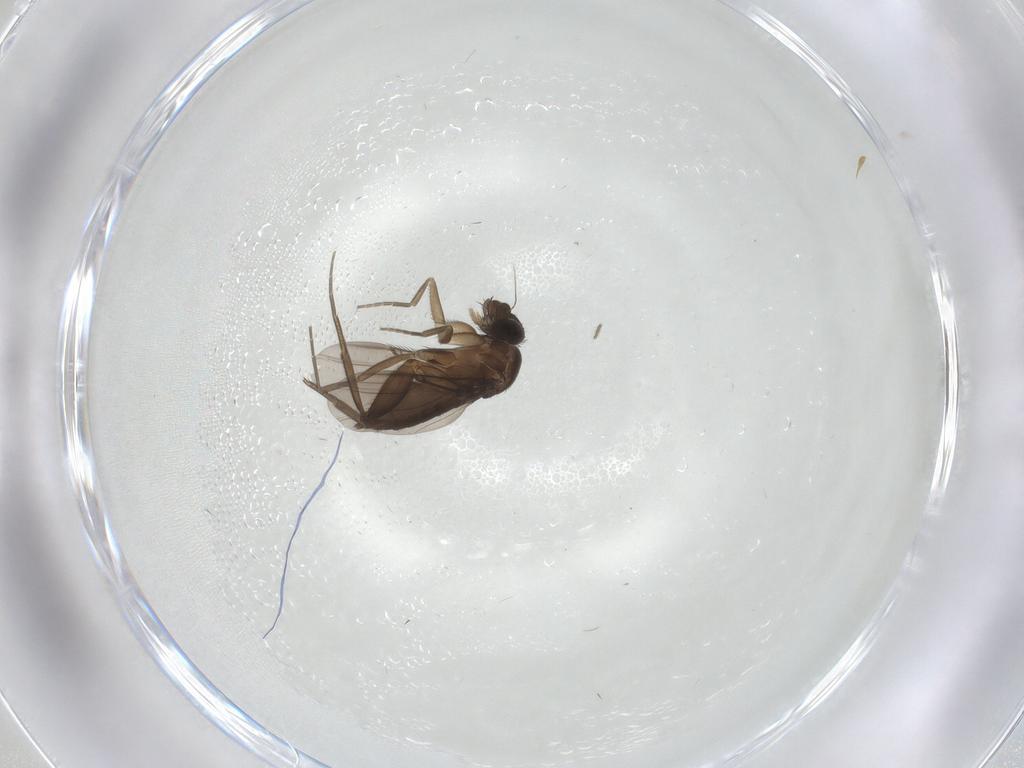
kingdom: Animalia
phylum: Arthropoda
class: Insecta
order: Diptera
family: Phoridae
